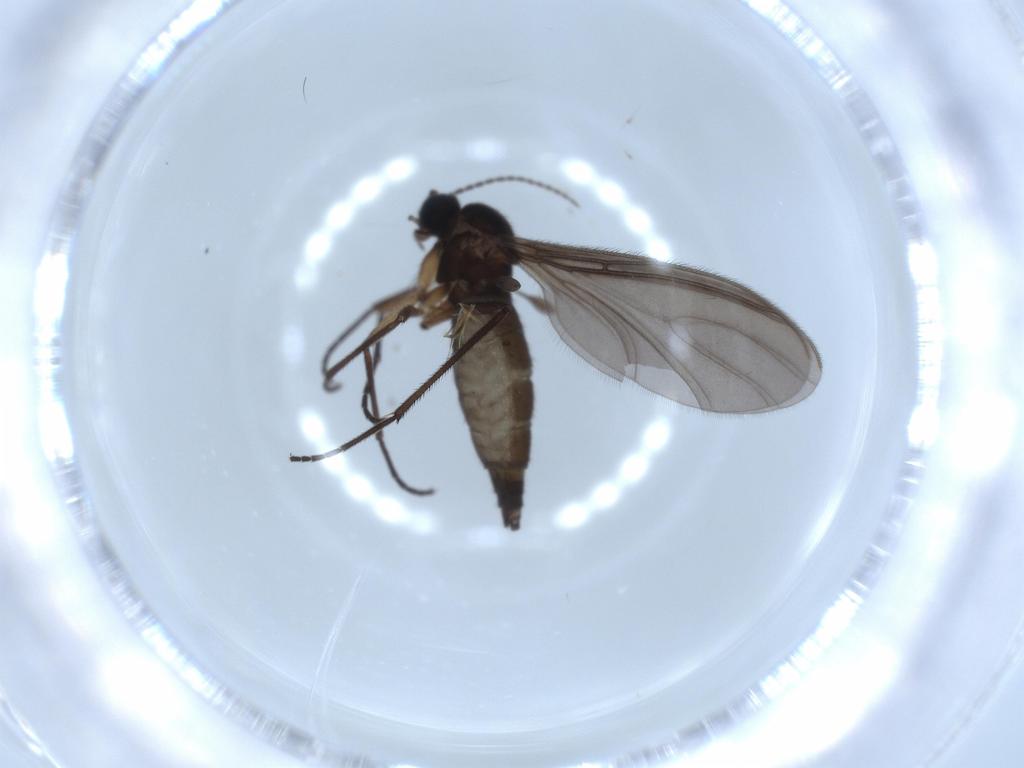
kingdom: Animalia
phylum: Arthropoda
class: Insecta
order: Diptera
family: Sciaridae
